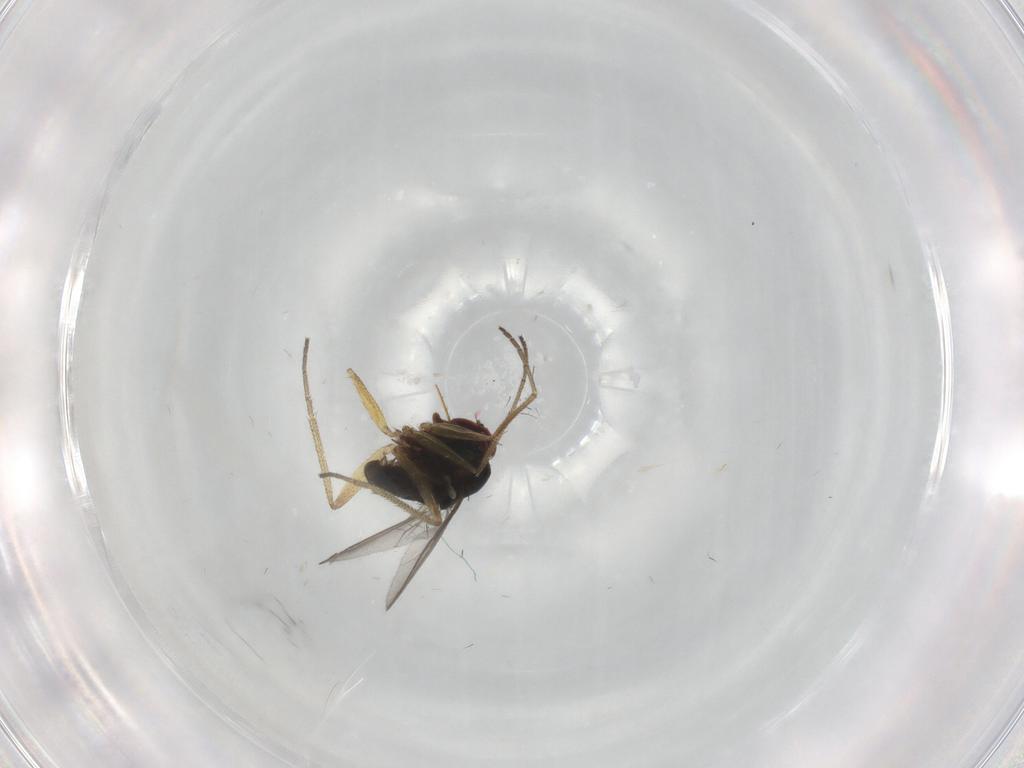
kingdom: Animalia
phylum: Arthropoda
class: Insecta
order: Diptera
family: Dolichopodidae
